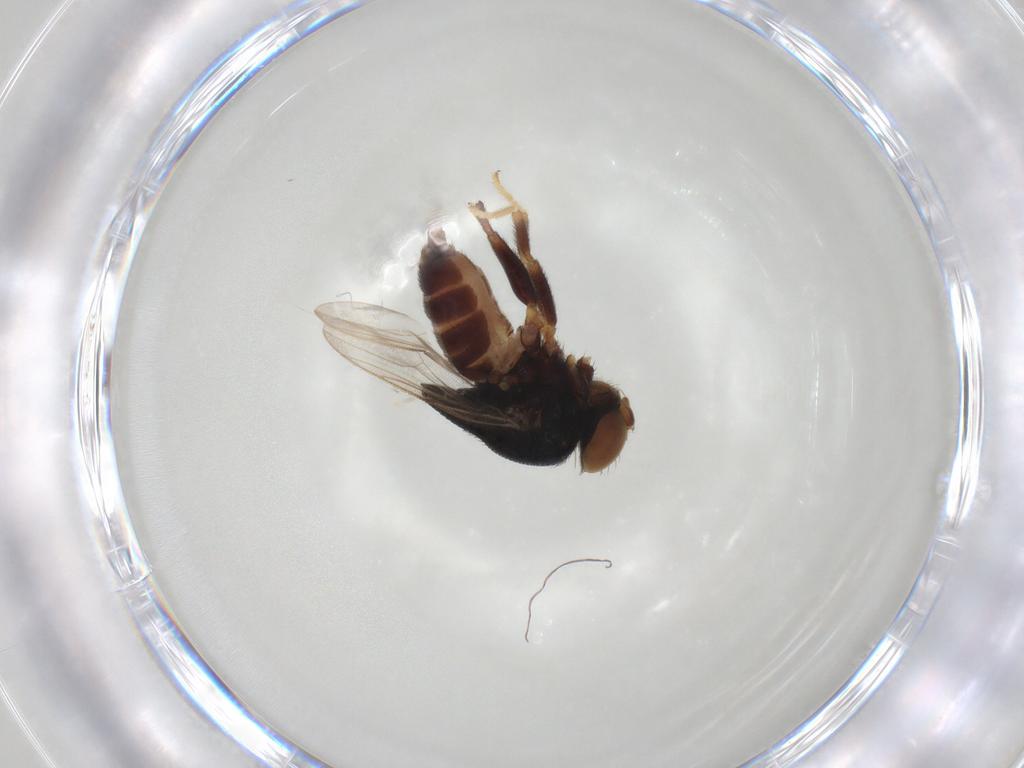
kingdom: Animalia
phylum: Arthropoda
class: Insecta
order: Diptera
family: Chloropidae
